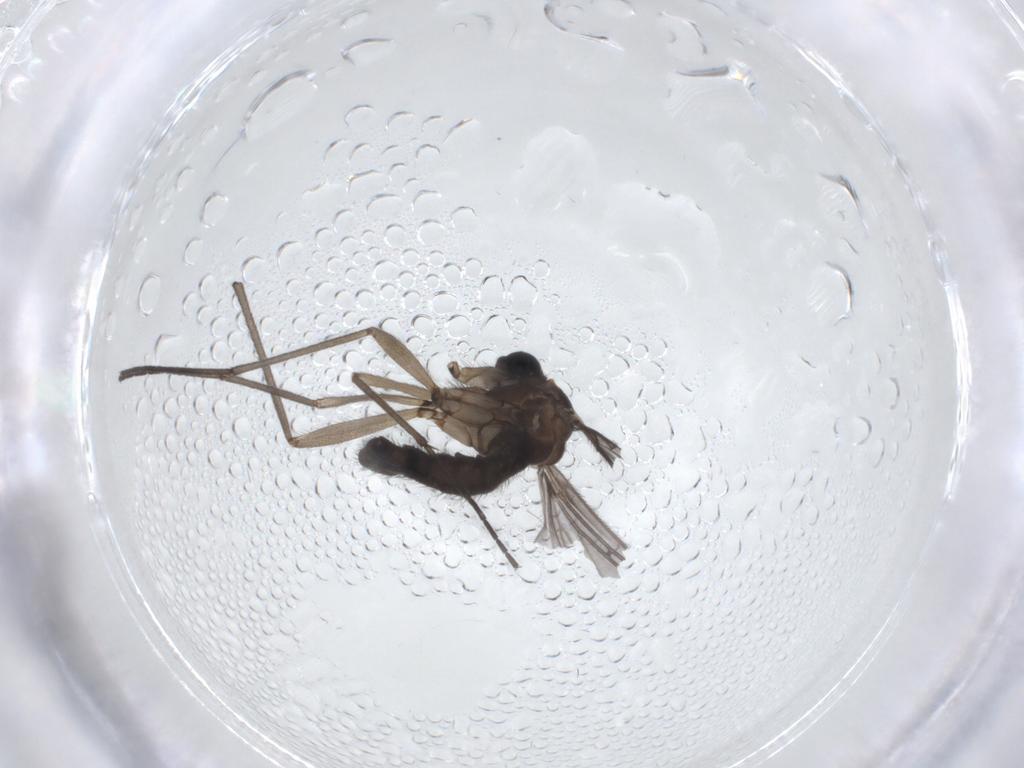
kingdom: Animalia
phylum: Arthropoda
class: Insecta
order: Diptera
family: Sciaridae
